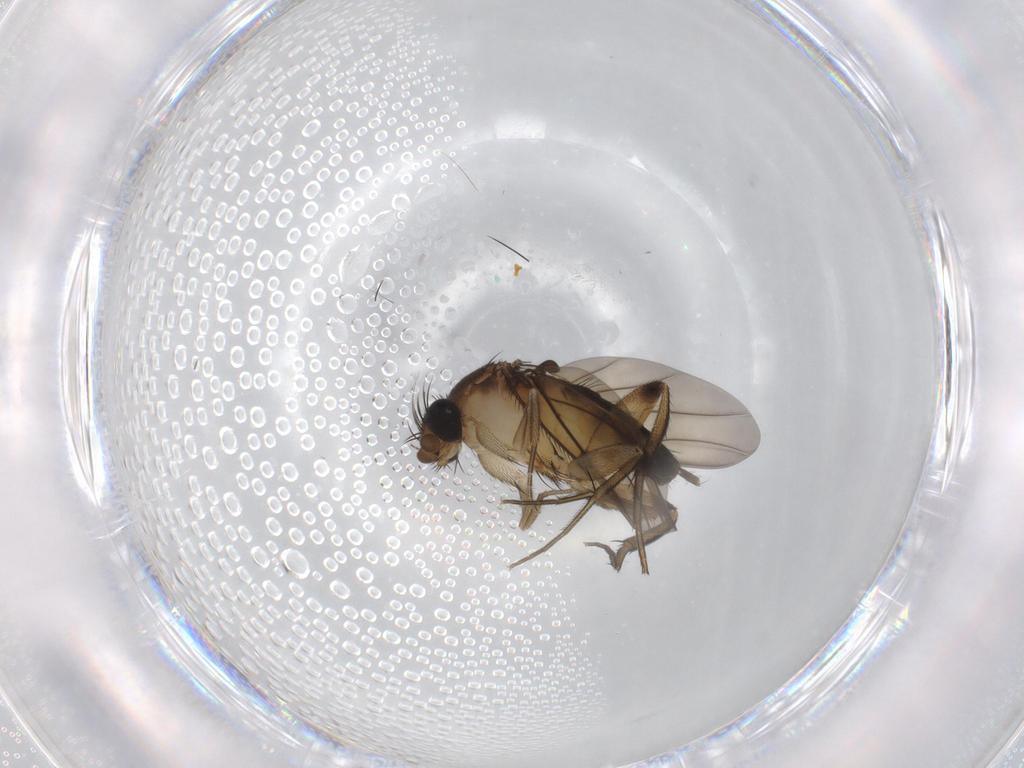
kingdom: Animalia
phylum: Arthropoda
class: Insecta
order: Diptera
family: Phoridae
